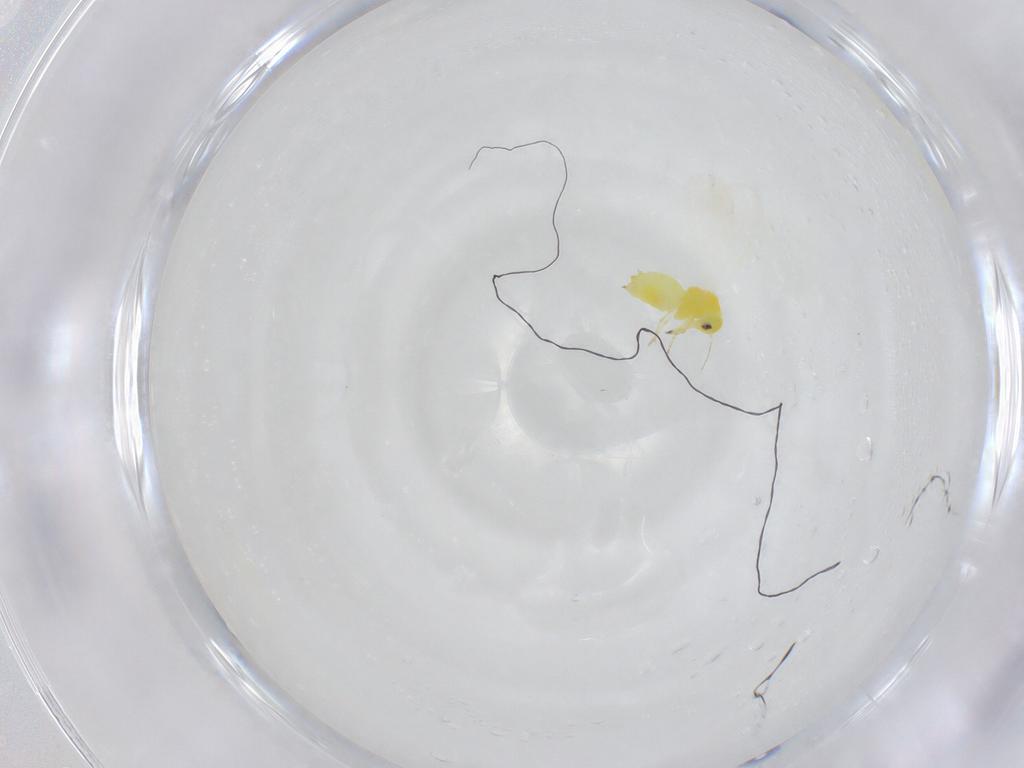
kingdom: Animalia
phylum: Arthropoda
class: Insecta
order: Hemiptera
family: Aleyrodidae
